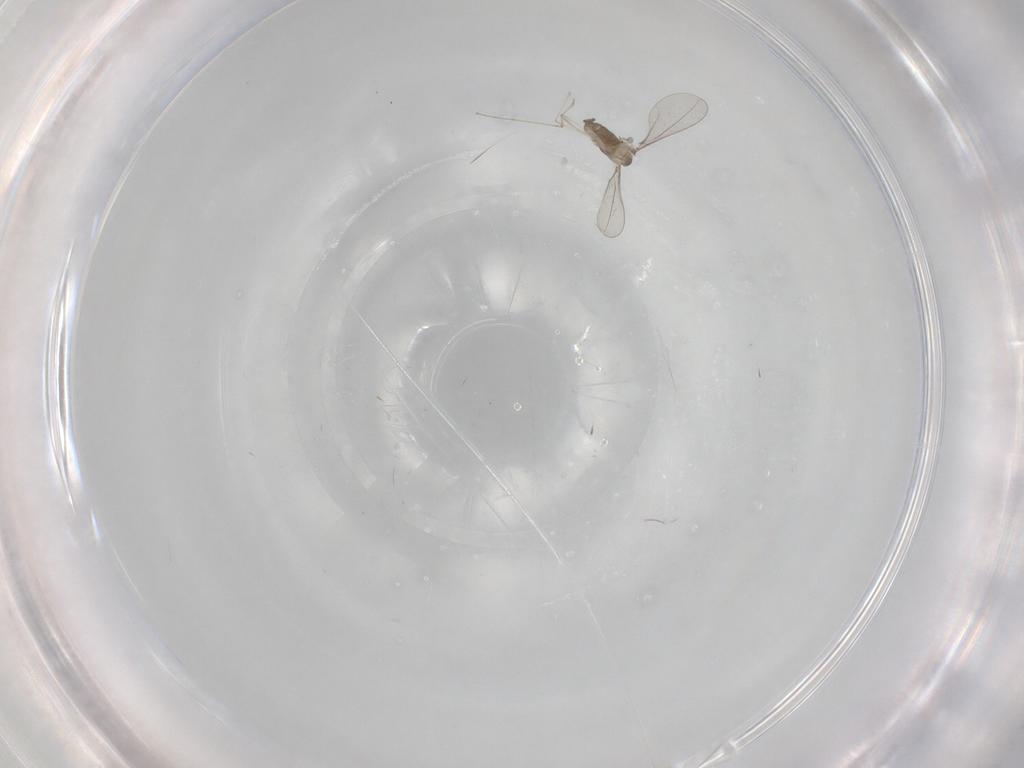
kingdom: Animalia
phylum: Arthropoda
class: Insecta
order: Diptera
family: Cecidomyiidae
